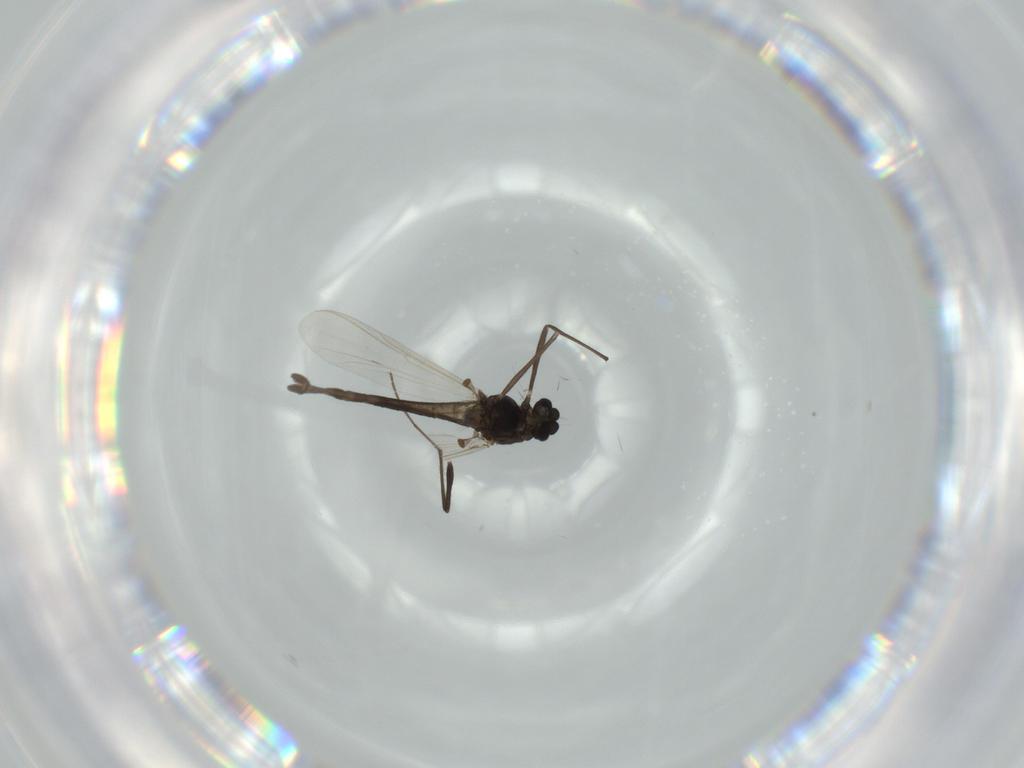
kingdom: Animalia
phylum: Arthropoda
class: Insecta
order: Diptera
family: Chironomidae
